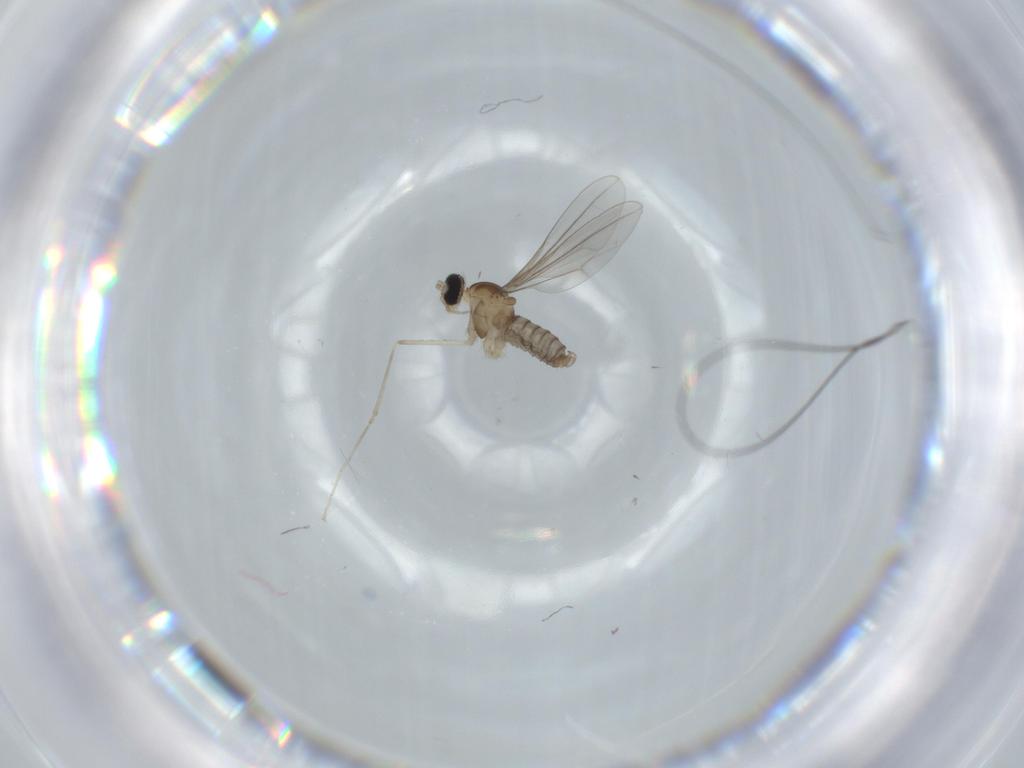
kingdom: Animalia
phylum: Arthropoda
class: Insecta
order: Diptera
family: Cecidomyiidae
